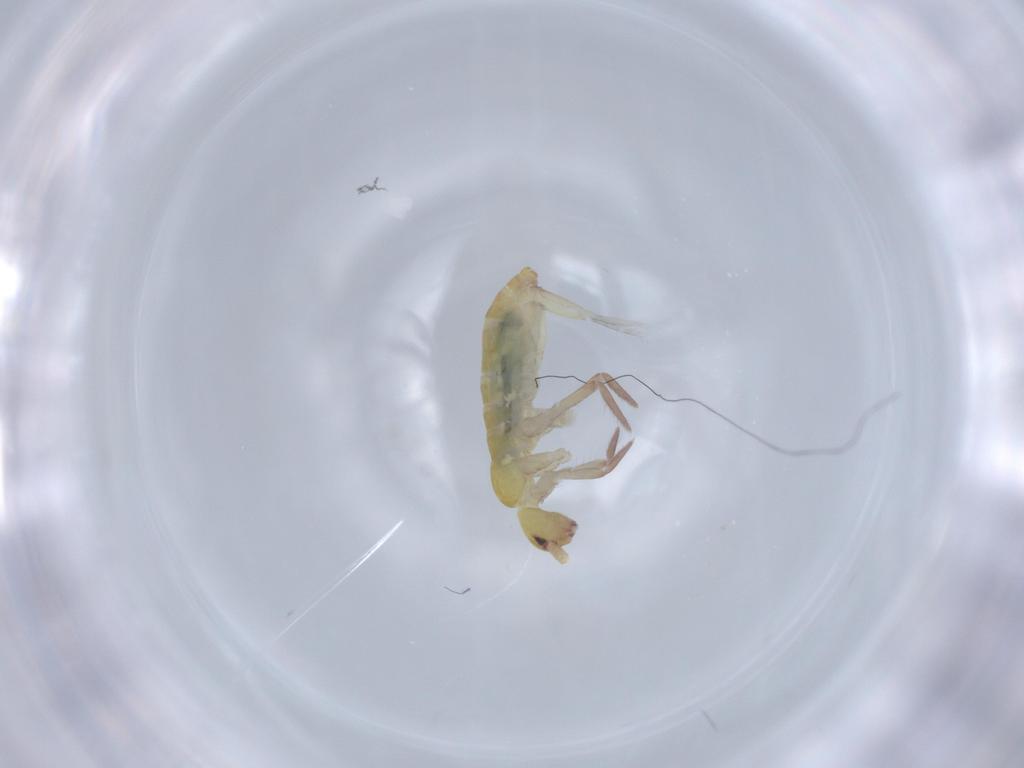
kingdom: Animalia
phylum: Arthropoda
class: Collembola
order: Entomobryomorpha
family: Tomoceridae
